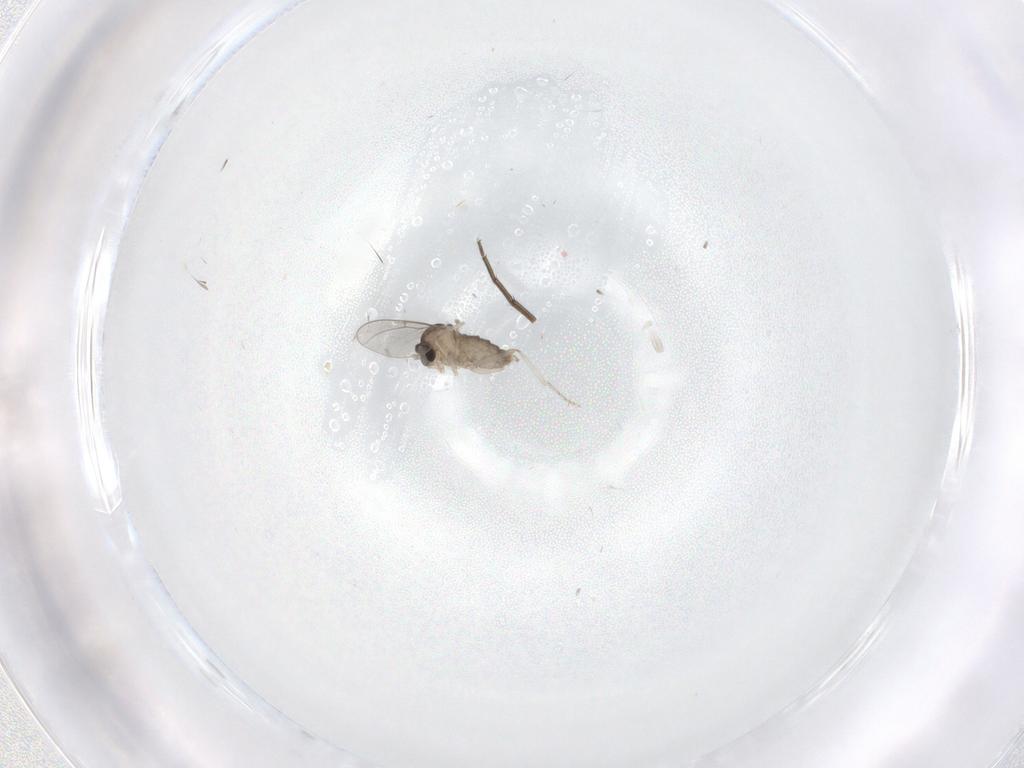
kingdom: Animalia
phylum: Arthropoda
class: Insecta
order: Diptera
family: Cecidomyiidae
